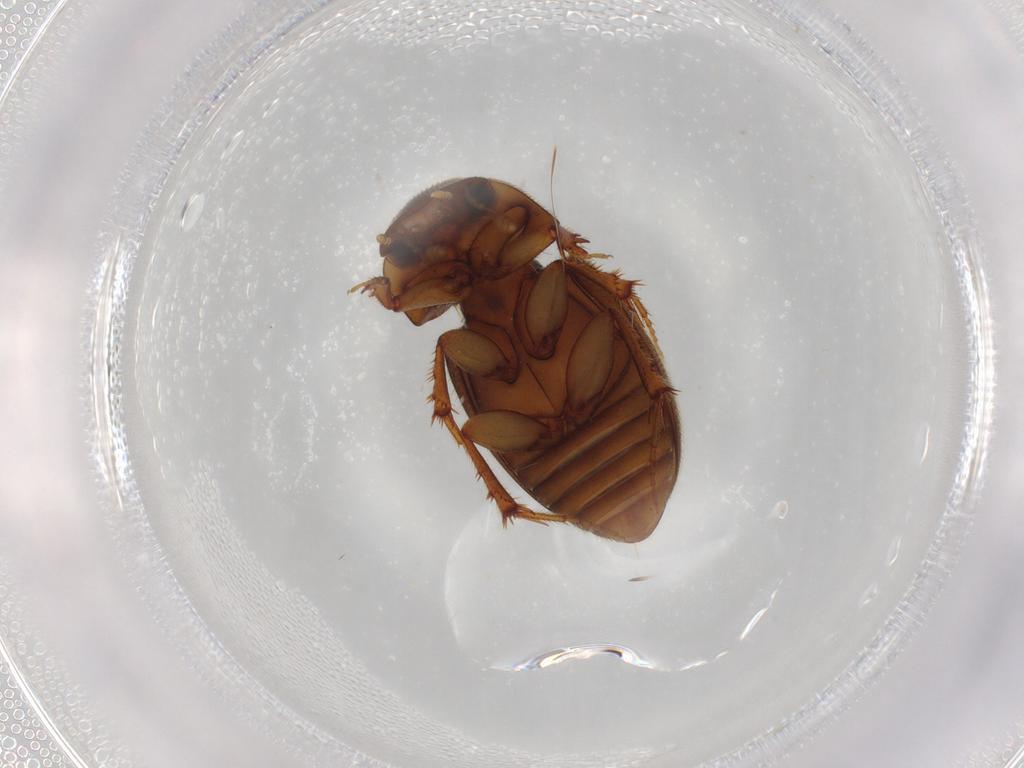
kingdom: Animalia
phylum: Arthropoda
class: Insecta
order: Coleoptera
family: Scarabaeidae
